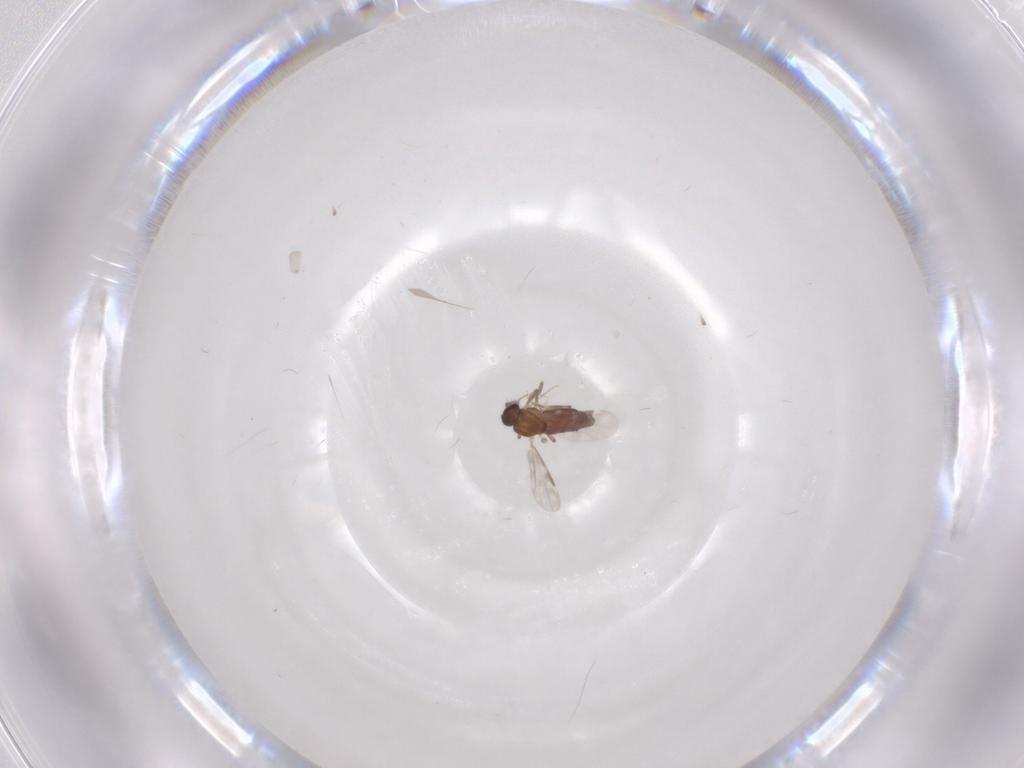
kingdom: Animalia
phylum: Arthropoda
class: Insecta
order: Diptera
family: Ceratopogonidae
